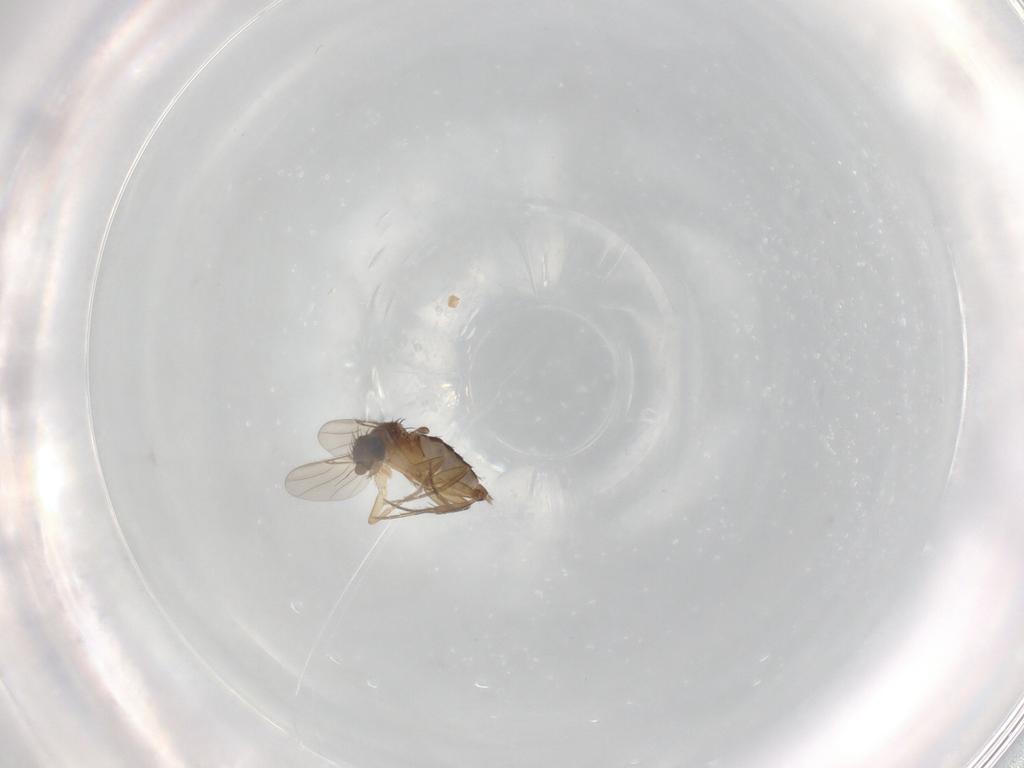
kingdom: Animalia
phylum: Arthropoda
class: Insecta
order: Diptera
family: Phoridae
